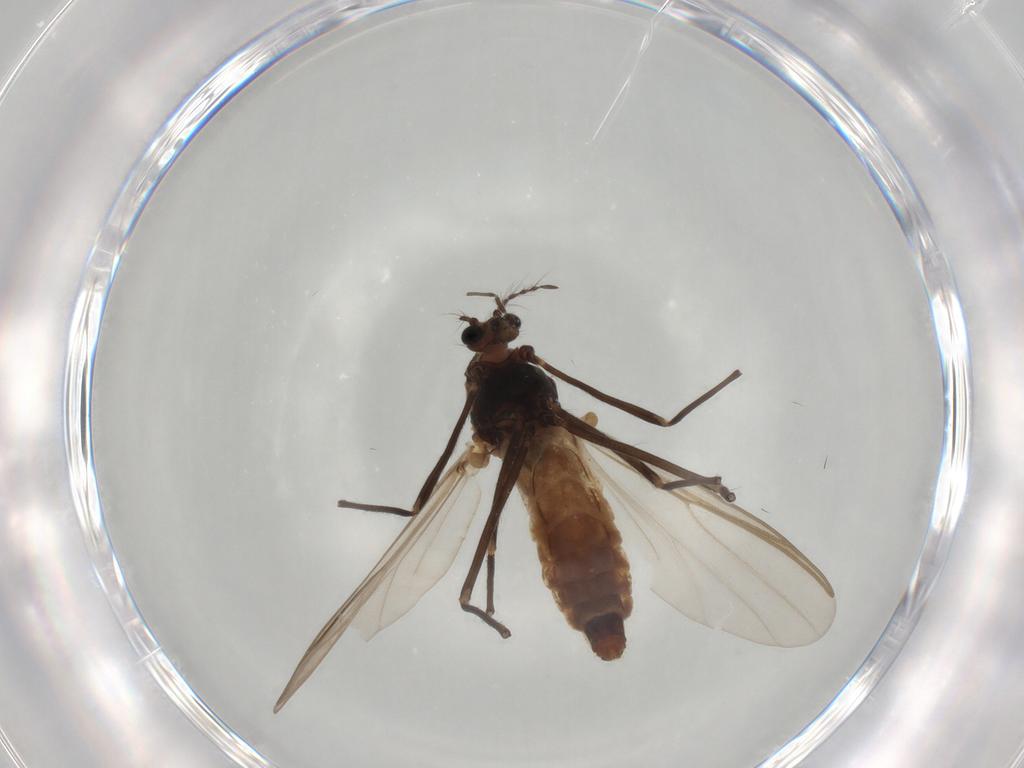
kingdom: Animalia
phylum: Arthropoda
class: Insecta
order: Diptera
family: Chironomidae
